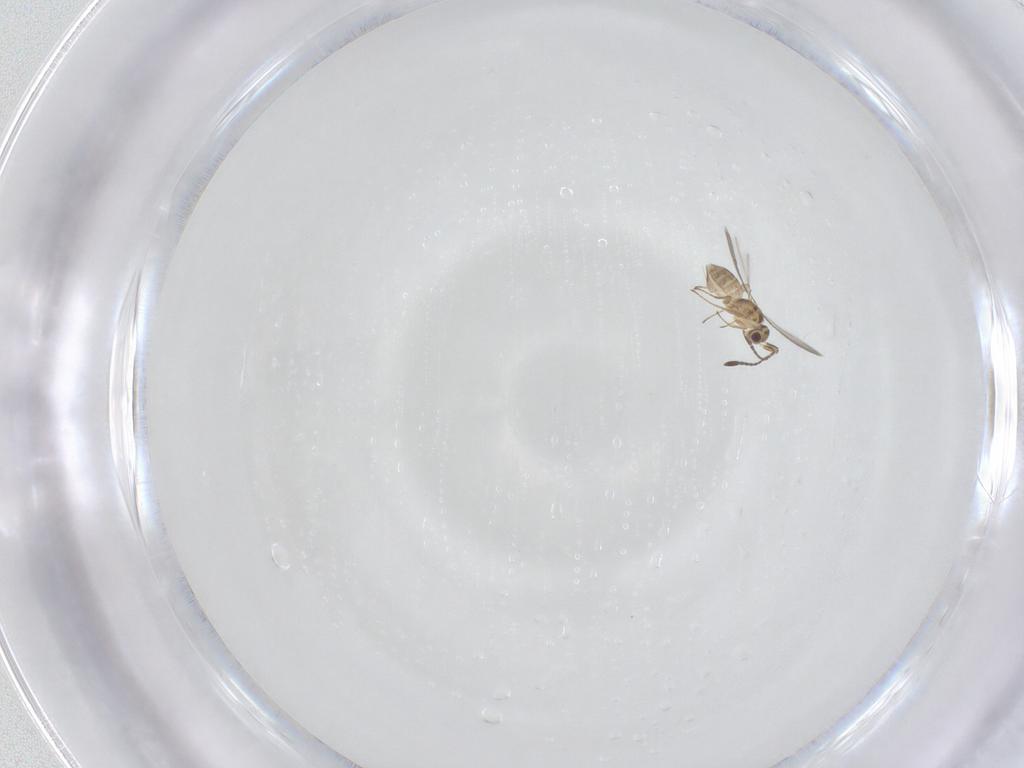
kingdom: Animalia
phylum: Arthropoda
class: Insecta
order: Hymenoptera
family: Mymaridae
